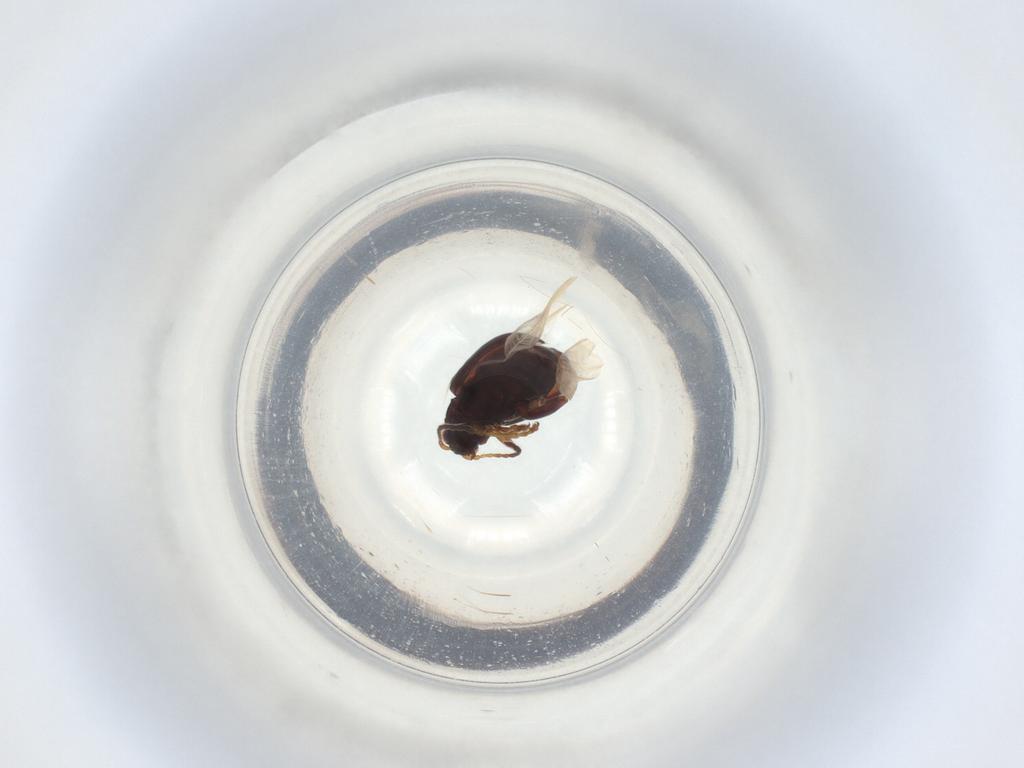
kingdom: Animalia
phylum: Arthropoda
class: Insecta
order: Coleoptera
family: Chrysomelidae
